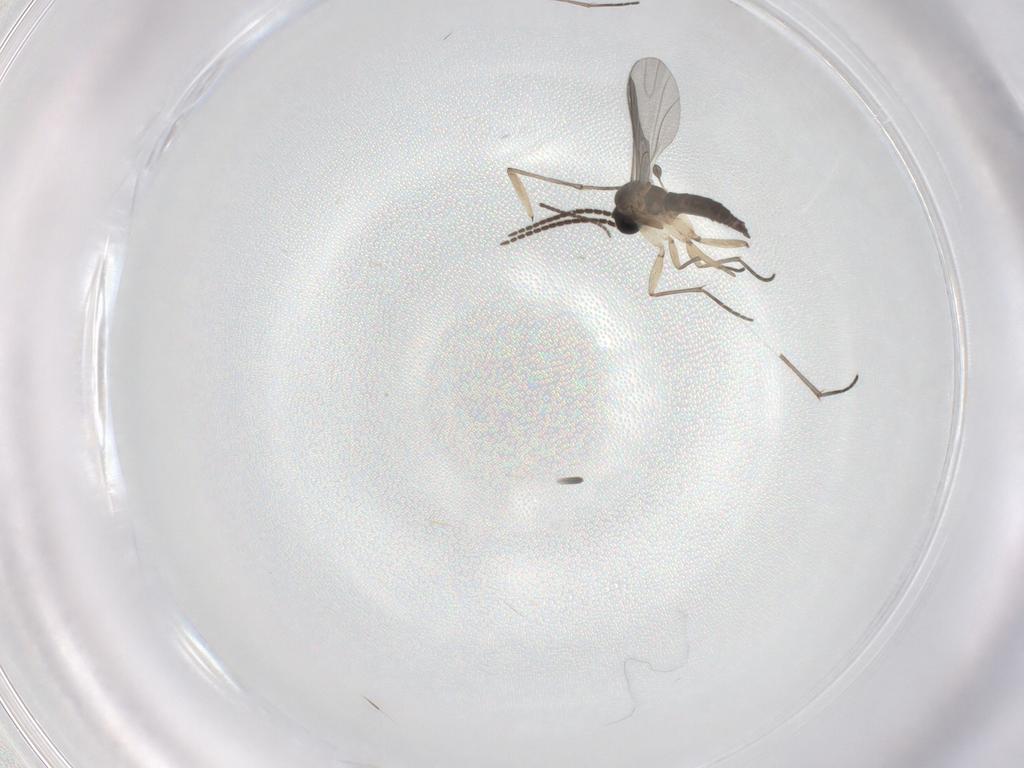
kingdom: Animalia
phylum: Arthropoda
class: Insecta
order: Diptera
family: Sciaridae
